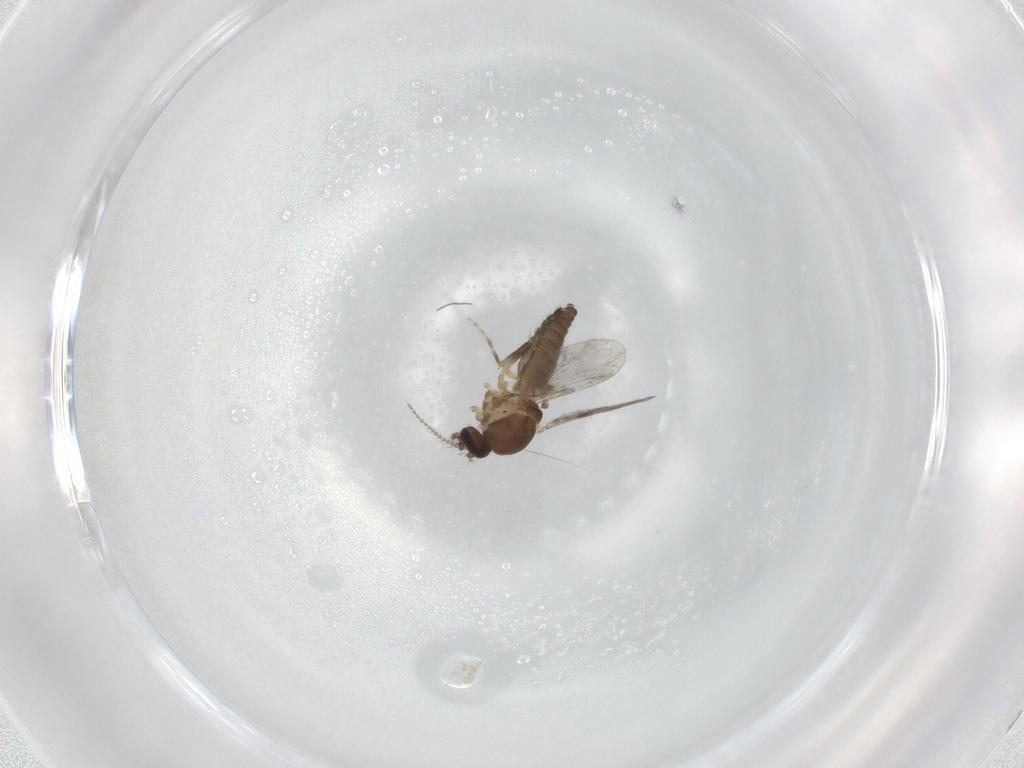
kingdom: Animalia
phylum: Arthropoda
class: Insecta
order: Diptera
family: Ceratopogonidae
